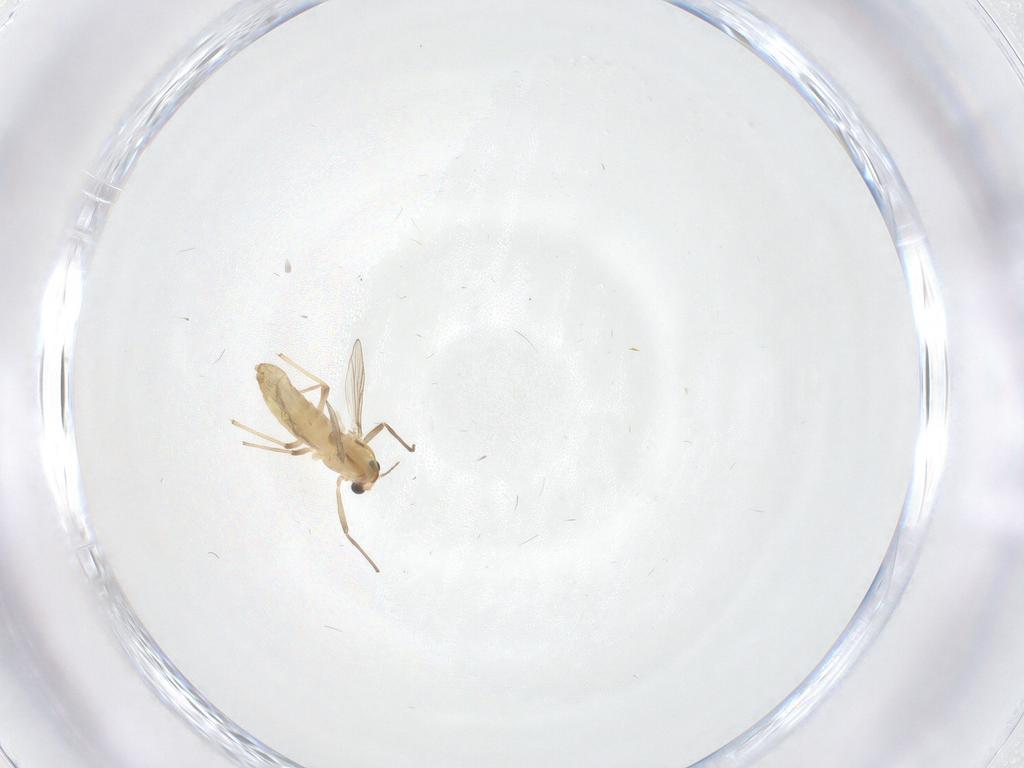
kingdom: Animalia
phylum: Arthropoda
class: Insecta
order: Diptera
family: Chironomidae
